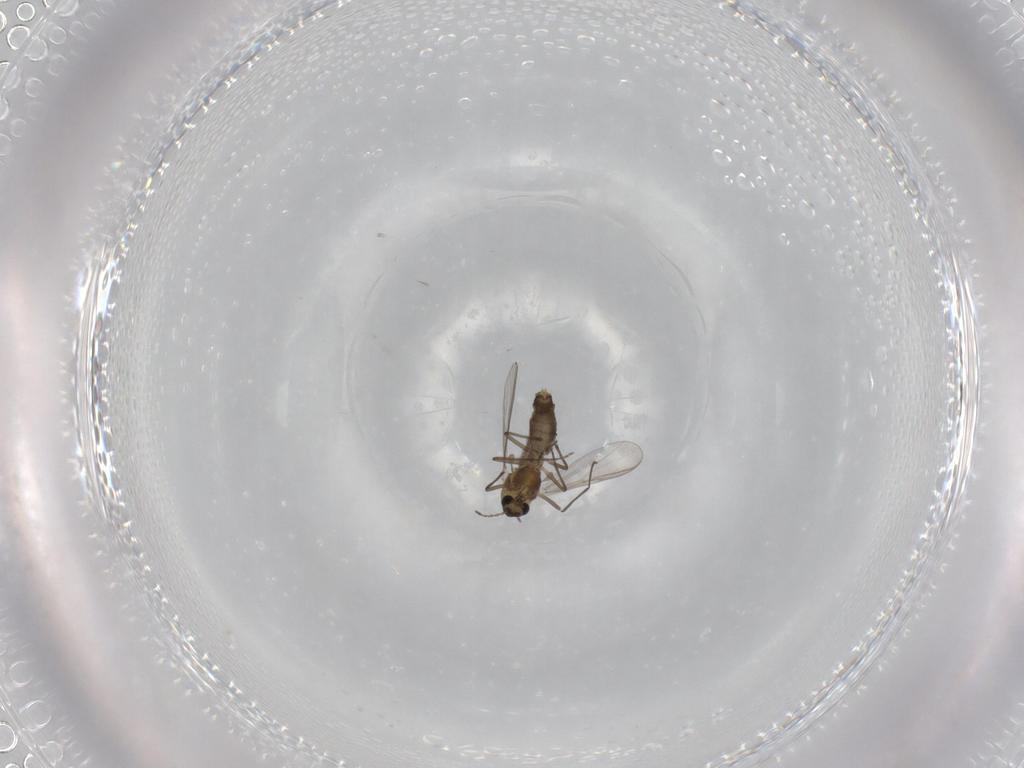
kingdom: Animalia
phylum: Arthropoda
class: Insecta
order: Diptera
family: Chironomidae
